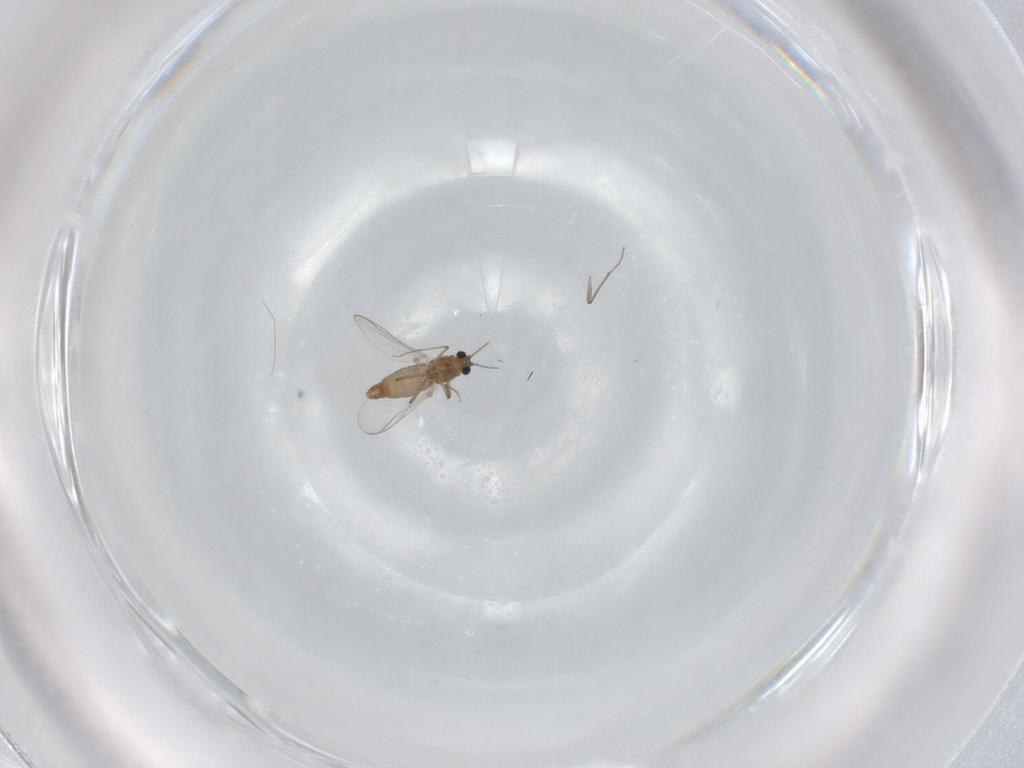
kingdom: Animalia
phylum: Arthropoda
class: Insecta
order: Diptera
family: Chironomidae
